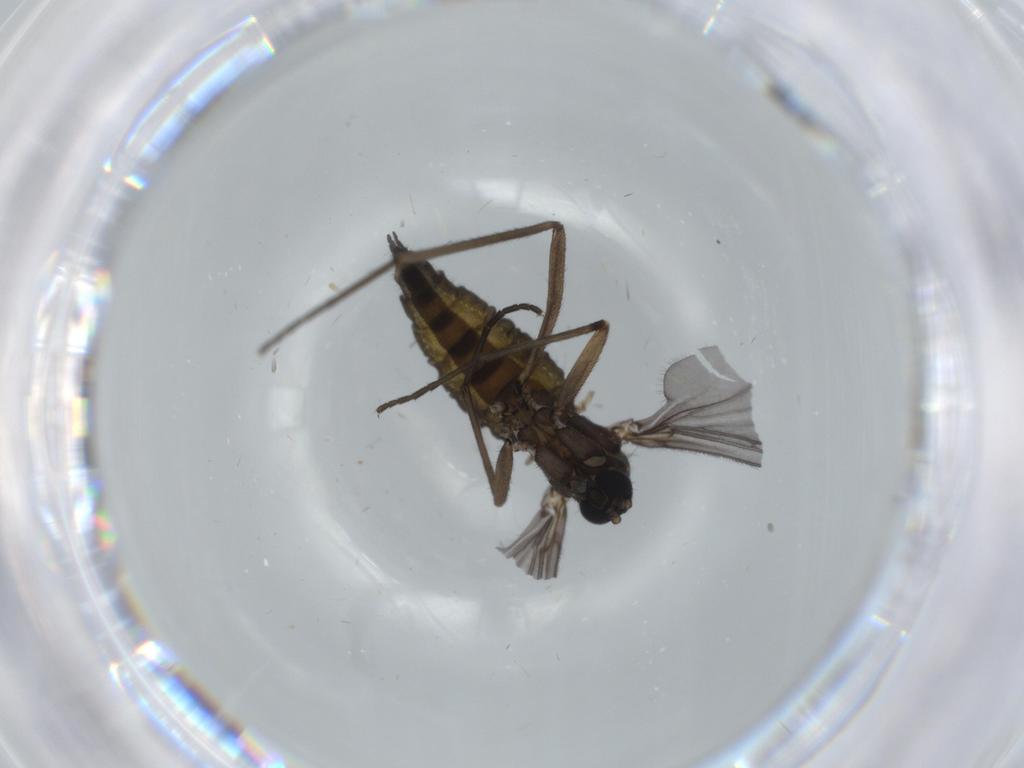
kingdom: Animalia
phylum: Arthropoda
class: Insecta
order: Diptera
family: Sciaridae
